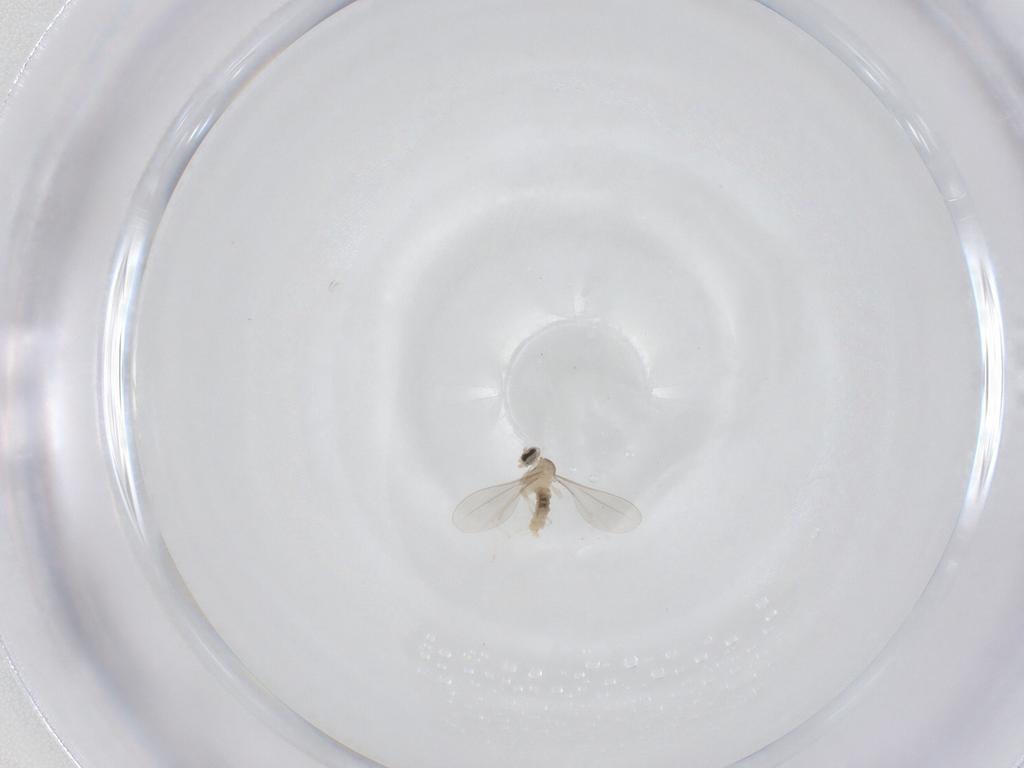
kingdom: Animalia
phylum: Arthropoda
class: Insecta
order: Diptera
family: Cecidomyiidae
